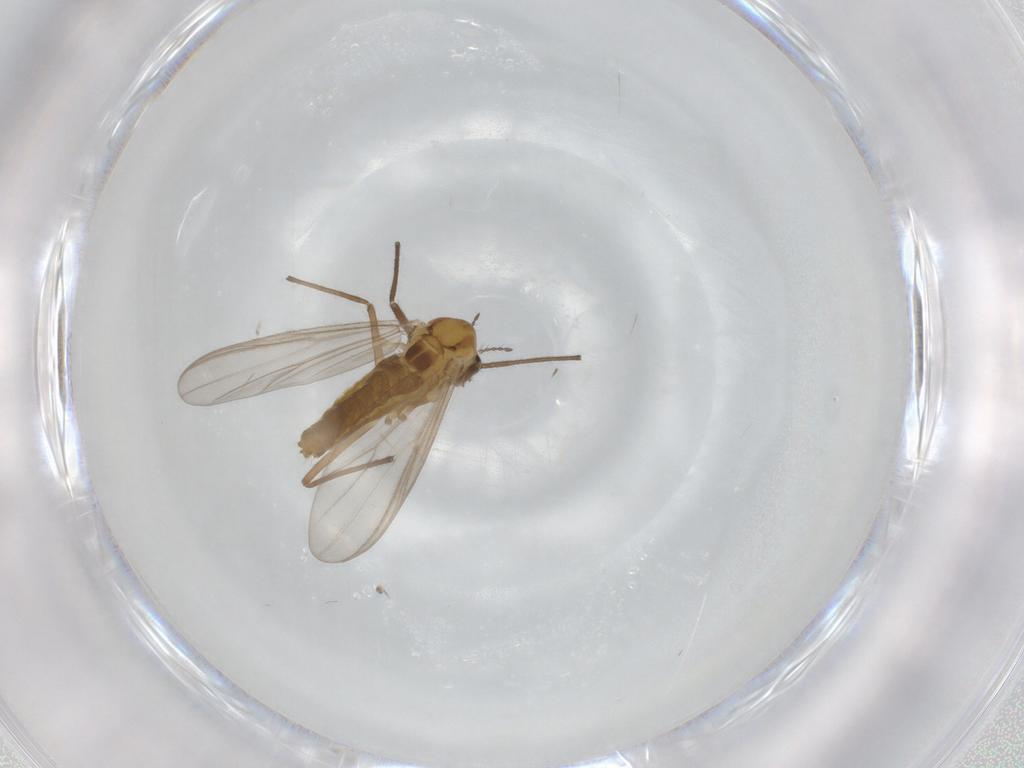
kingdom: Animalia
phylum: Arthropoda
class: Insecta
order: Diptera
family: Chironomidae
